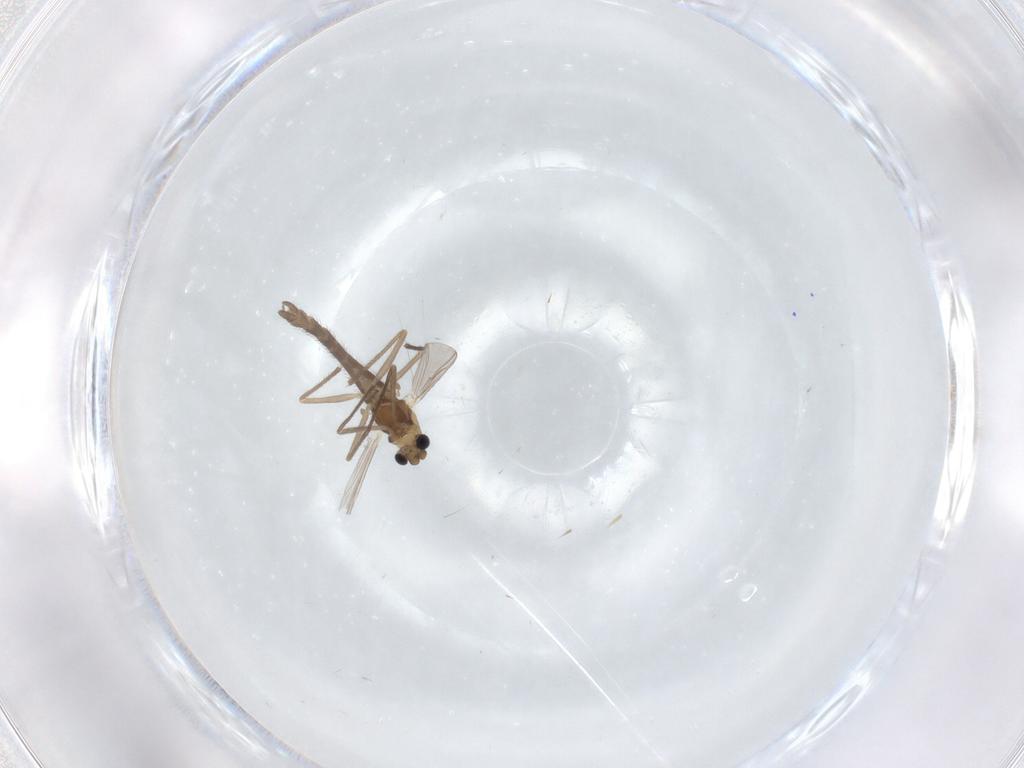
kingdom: Animalia
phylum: Arthropoda
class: Insecta
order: Diptera
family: Chironomidae
